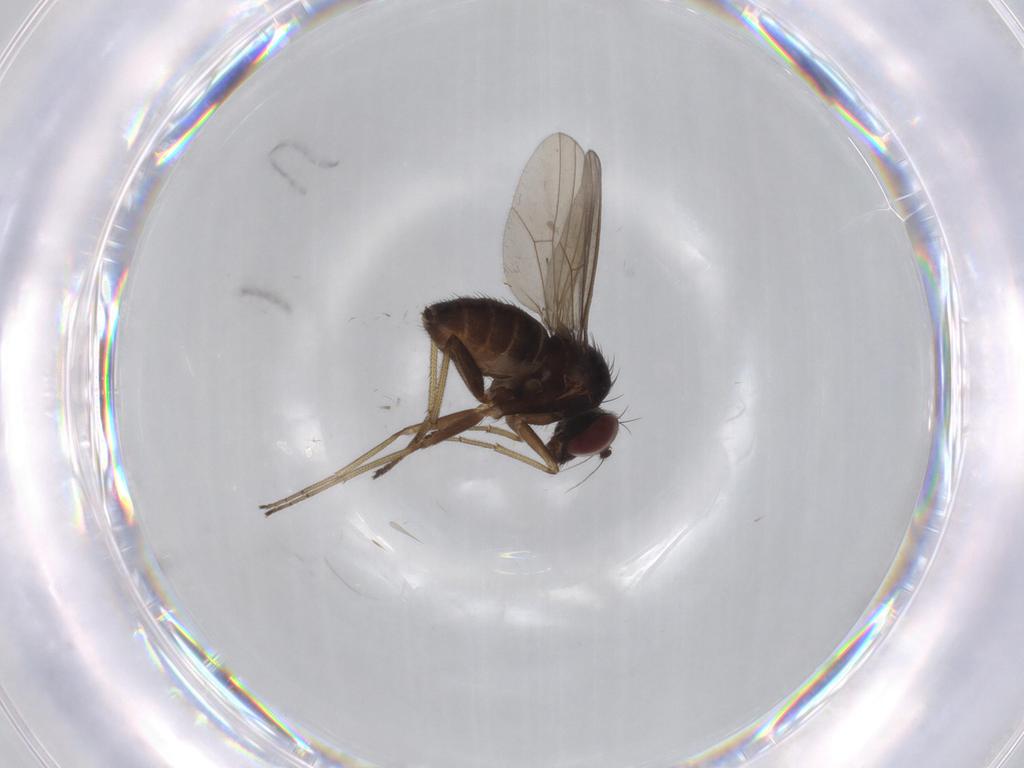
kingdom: Animalia
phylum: Arthropoda
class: Insecta
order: Diptera
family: Dolichopodidae
